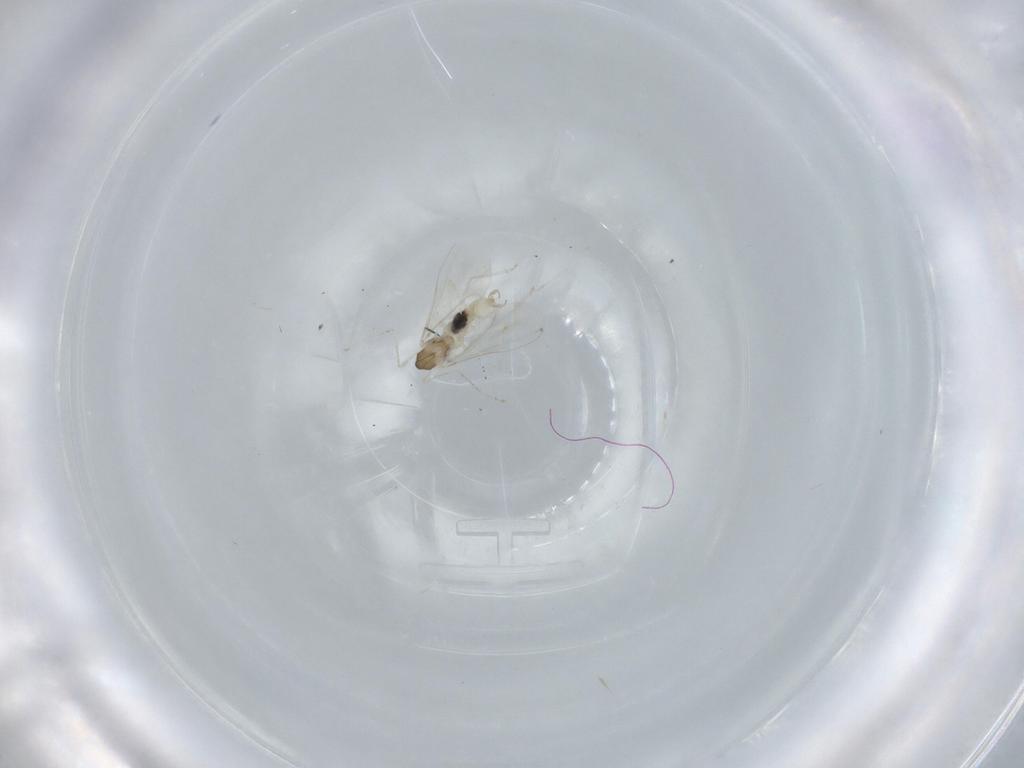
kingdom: Animalia
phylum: Arthropoda
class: Insecta
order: Diptera
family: Cecidomyiidae
